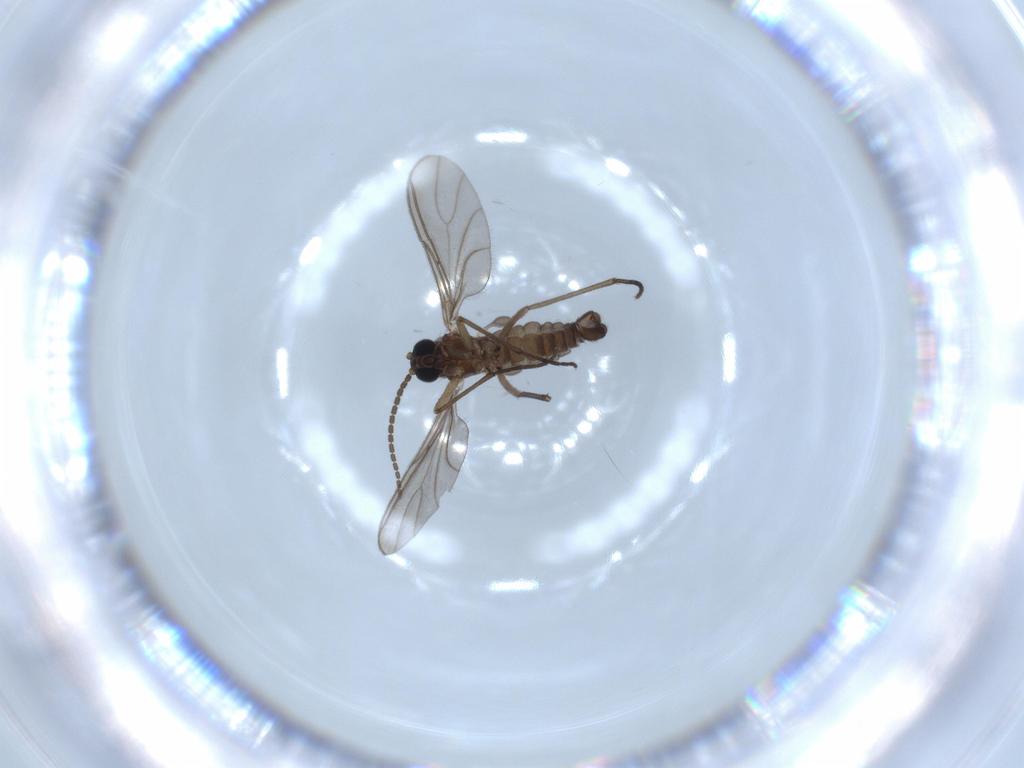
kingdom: Animalia
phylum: Arthropoda
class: Insecta
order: Diptera
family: Sciaridae
